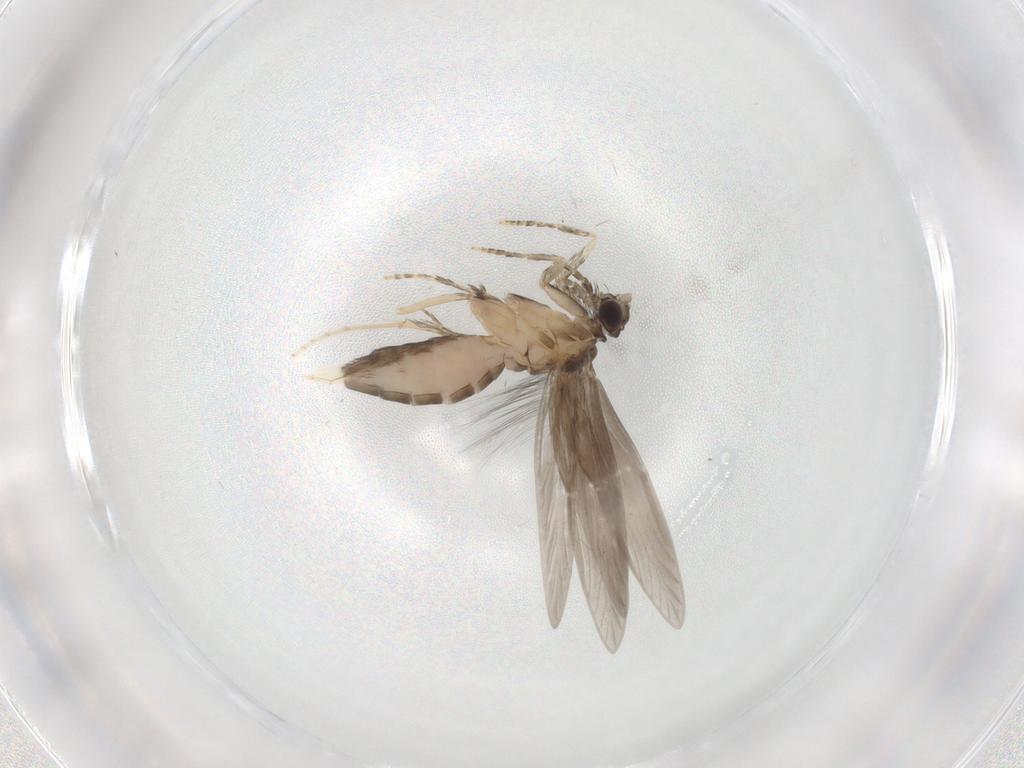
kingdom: Animalia
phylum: Arthropoda
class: Insecta
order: Trichoptera
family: Hydroptilidae
